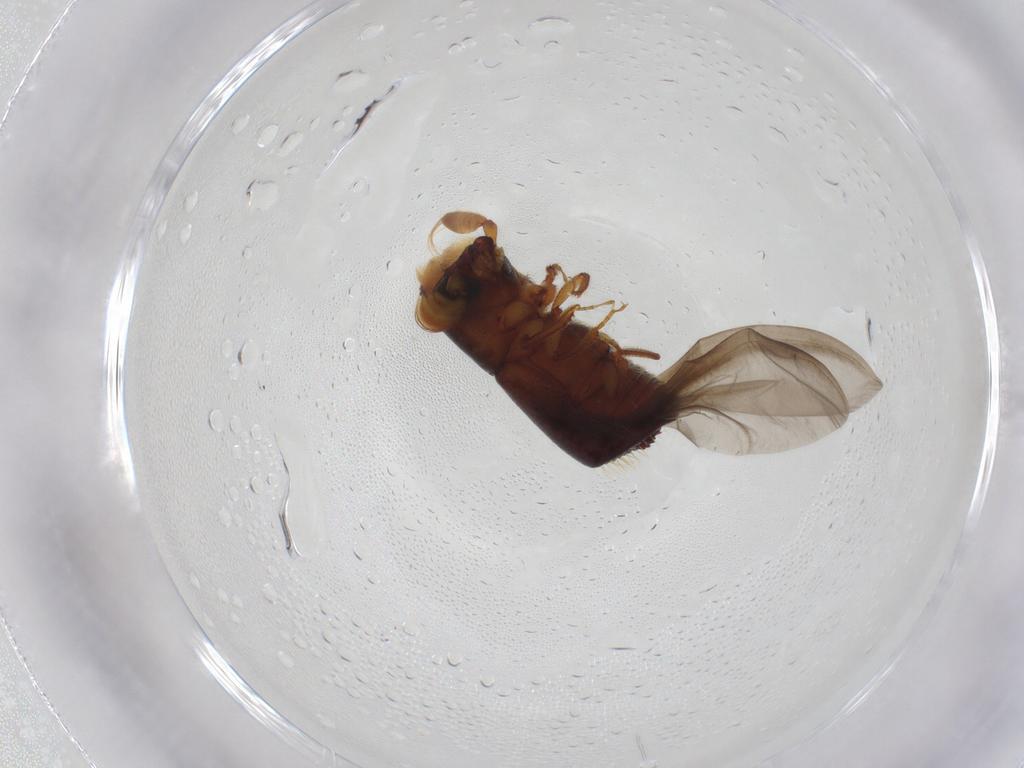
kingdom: Animalia
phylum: Arthropoda
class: Insecta
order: Coleoptera
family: Curculionidae
